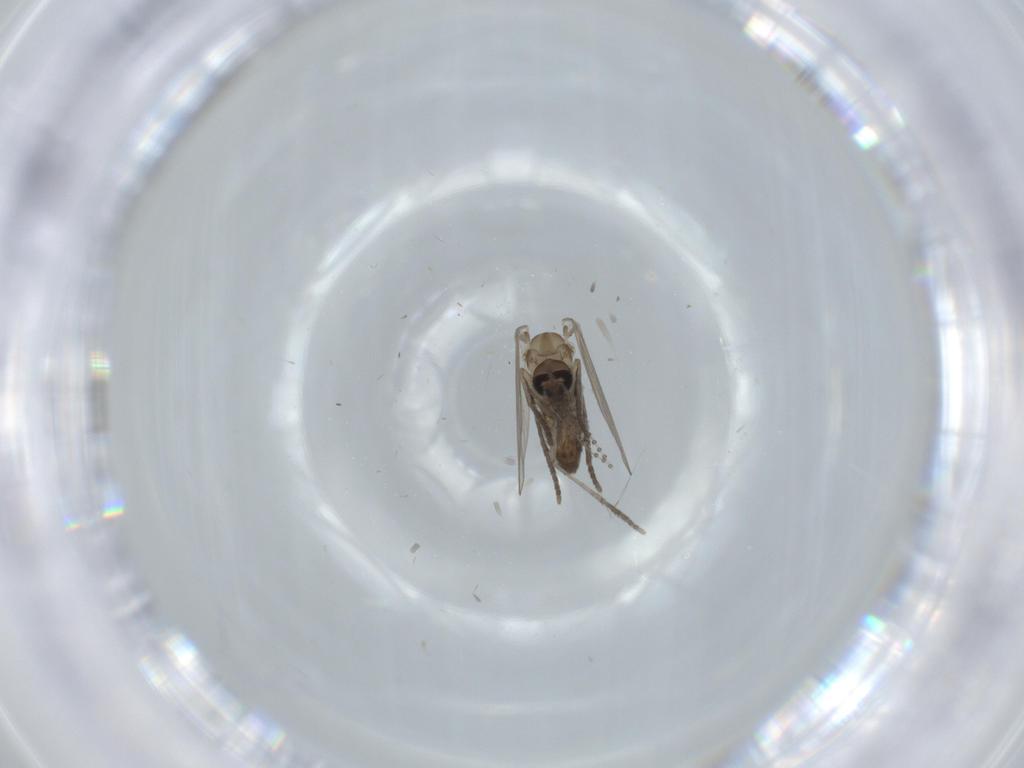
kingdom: Animalia
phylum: Arthropoda
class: Insecta
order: Diptera
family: Psychodidae
